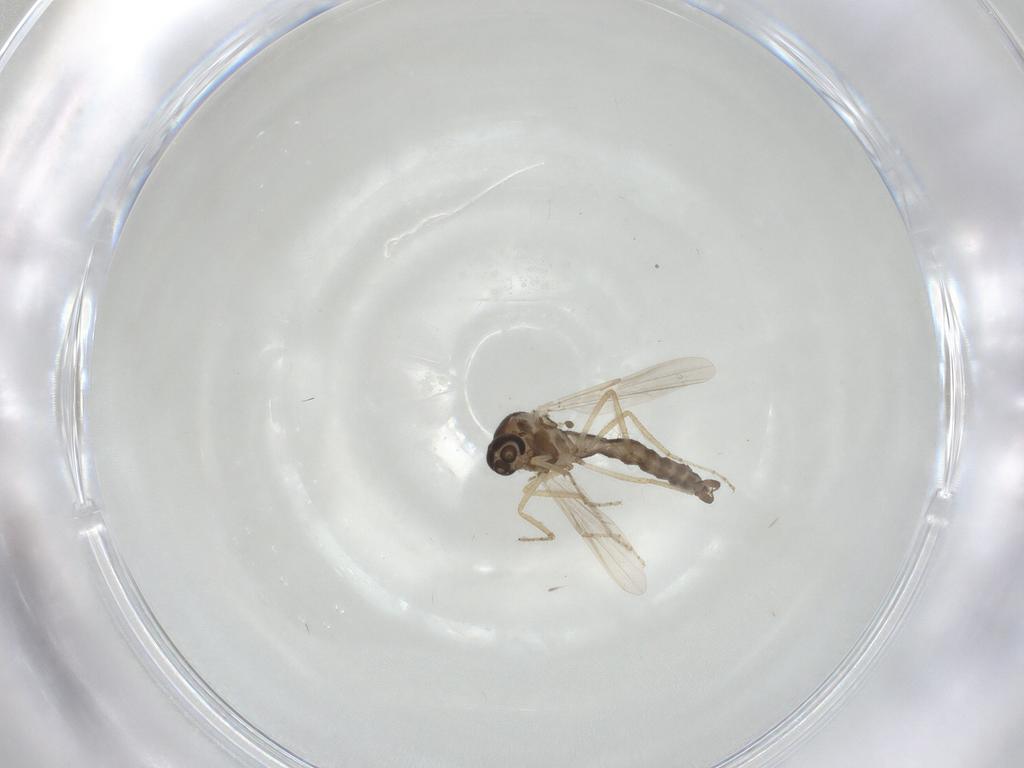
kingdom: Animalia
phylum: Arthropoda
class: Insecta
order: Diptera
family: Ceratopogonidae
